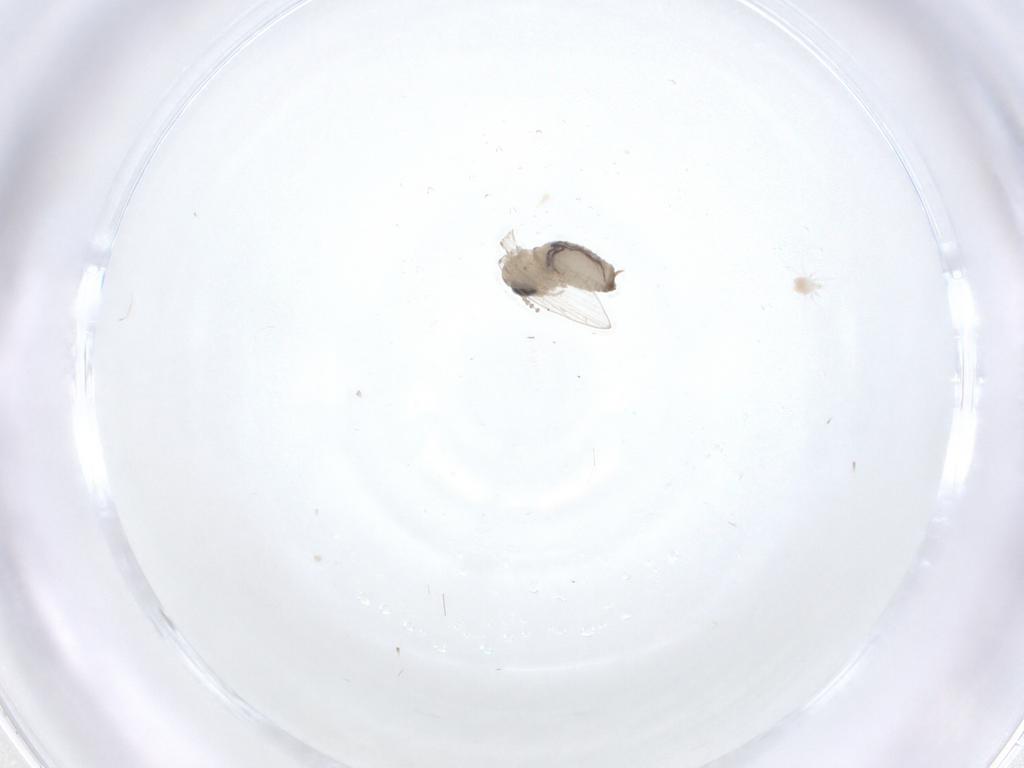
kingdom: Animalia
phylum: Arthropoda
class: Insecta
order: Diptera
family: Psychodidae
